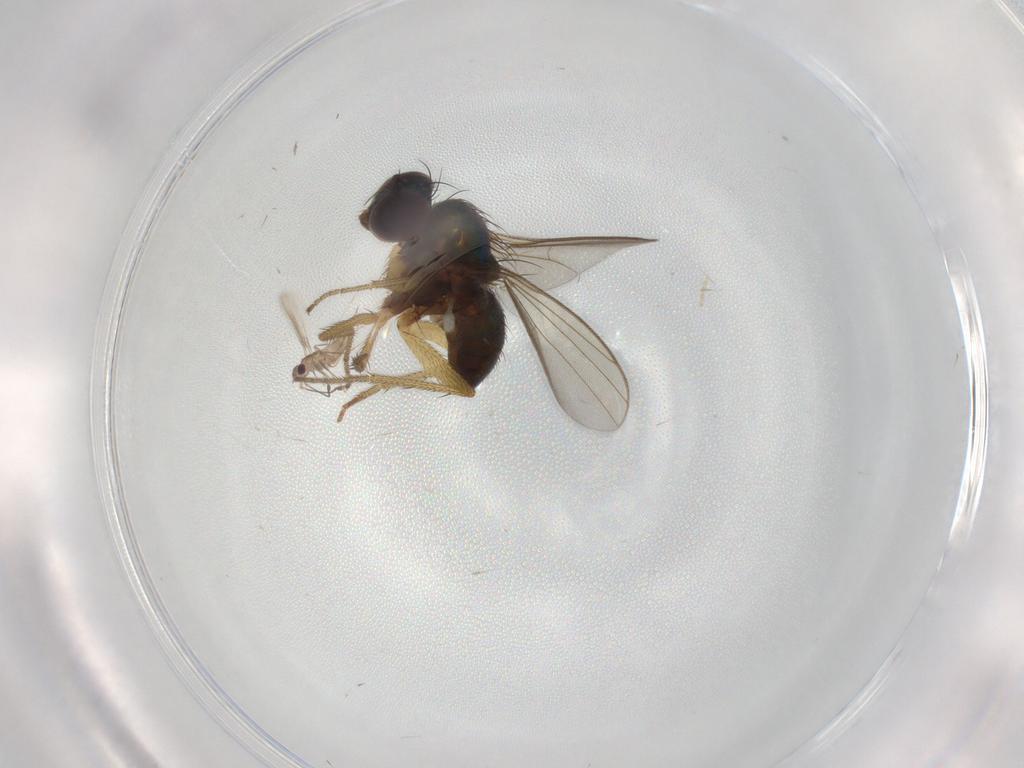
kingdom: Animalia
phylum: Arthropoda
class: Insecta
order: Diptera
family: Dolichopodidae
